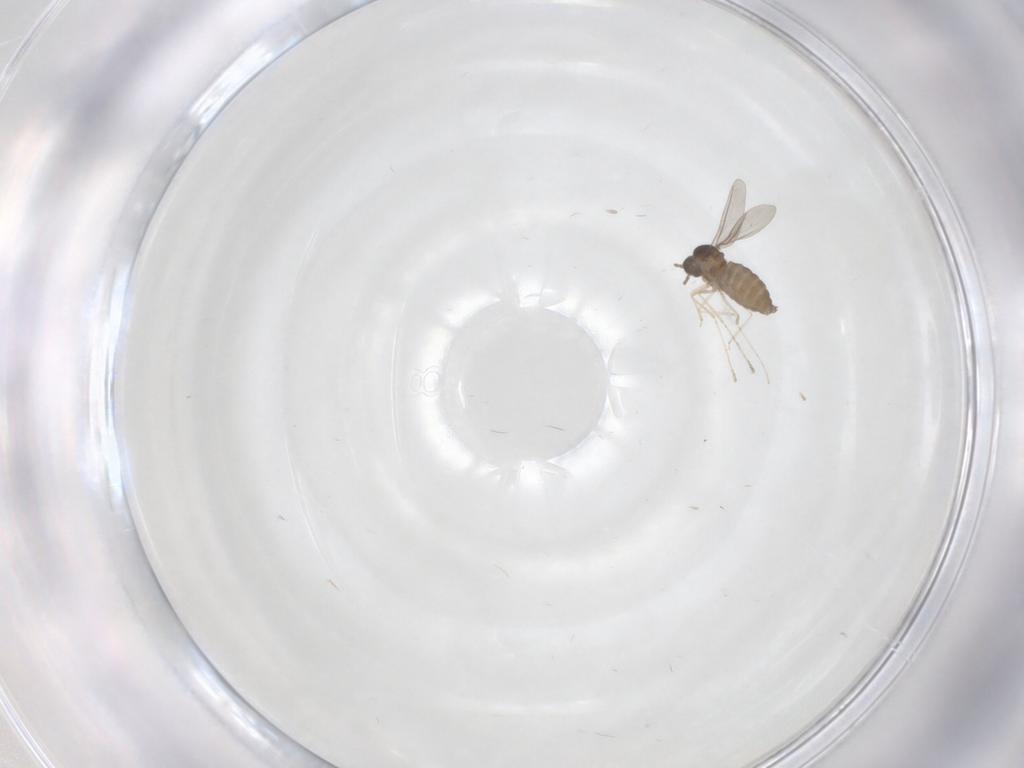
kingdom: Animalia
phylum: Arthropoda
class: Insecta
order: Diptera
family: Cecidomyiidae
